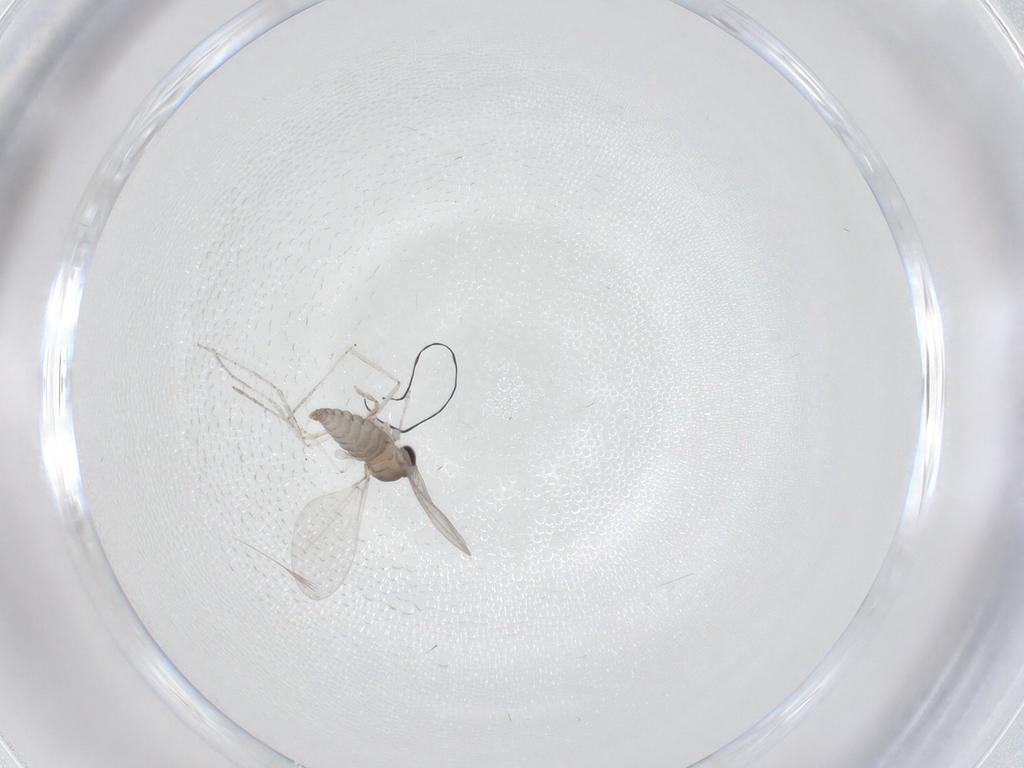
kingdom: Animalia
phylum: Arthropoda
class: Insecta
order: Diptera
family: Cecidomyiidae
